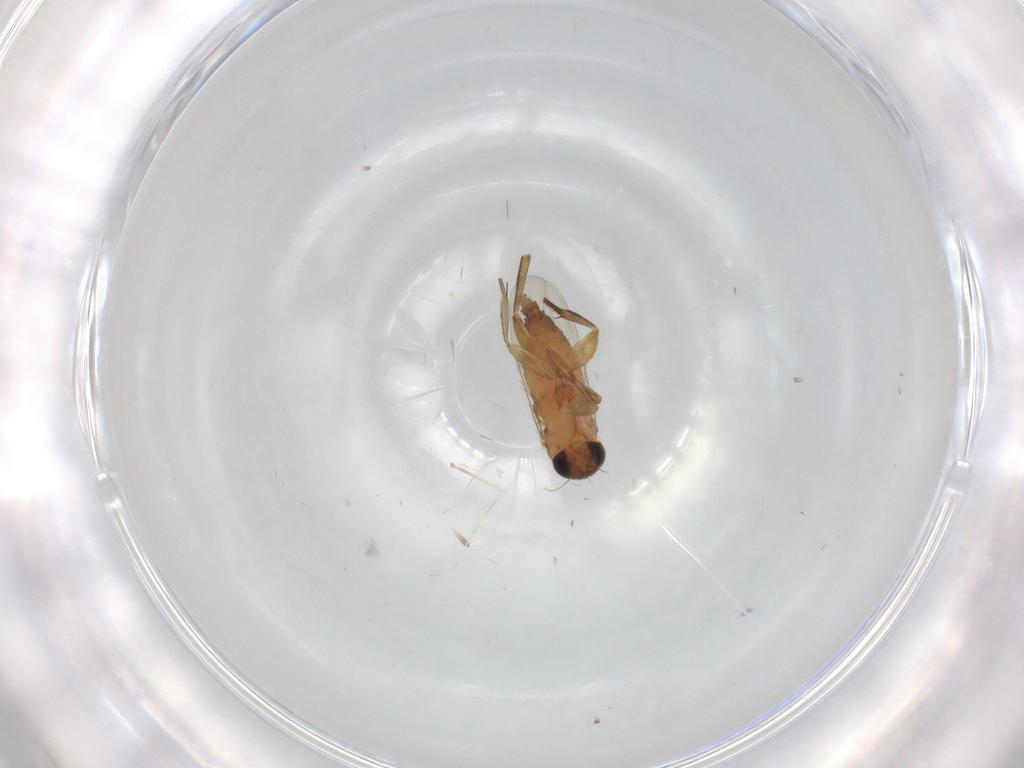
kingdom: Animalia
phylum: Arthropoda
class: Insecta
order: Diptera
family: Phoridae
